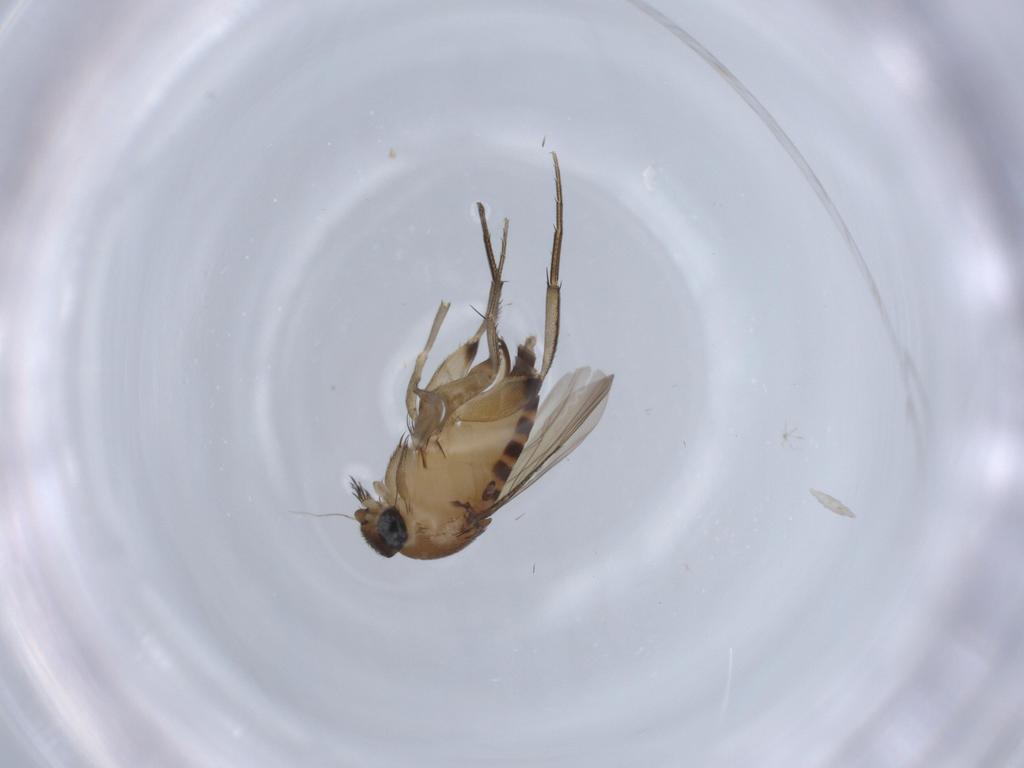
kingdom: Animalia
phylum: Arthropoda
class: Insecta
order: Diptera
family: Phoridae
